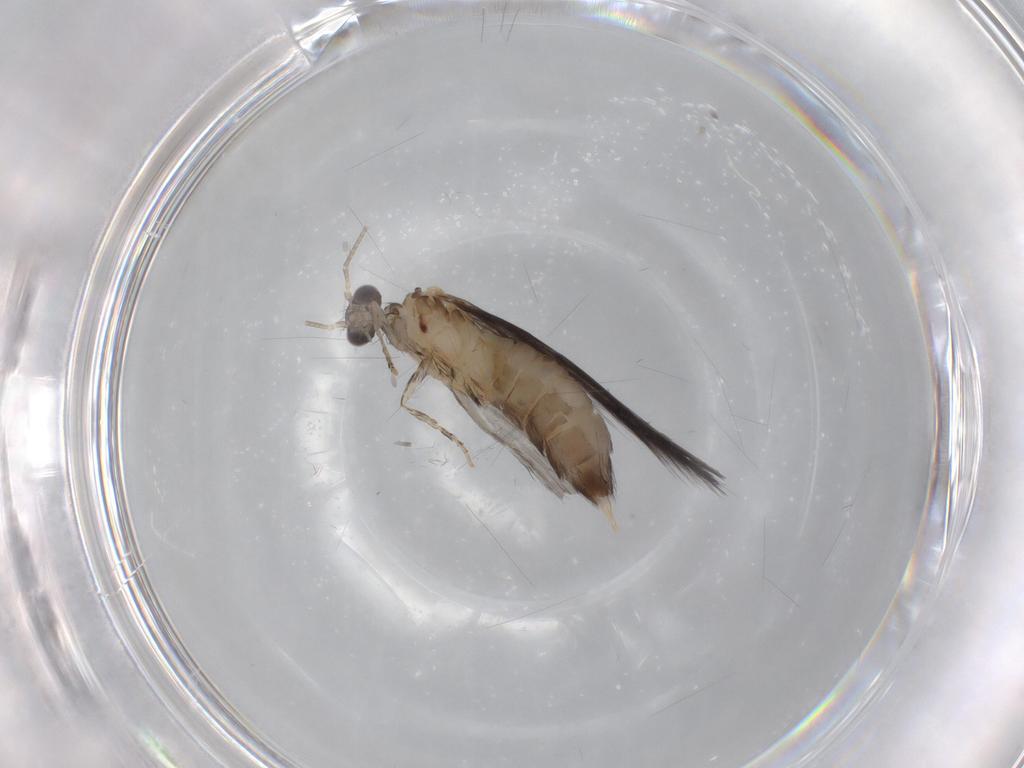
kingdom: Animalia
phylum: Arthropoda
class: Insecta
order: Trichoptera
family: Hydroptilidae
